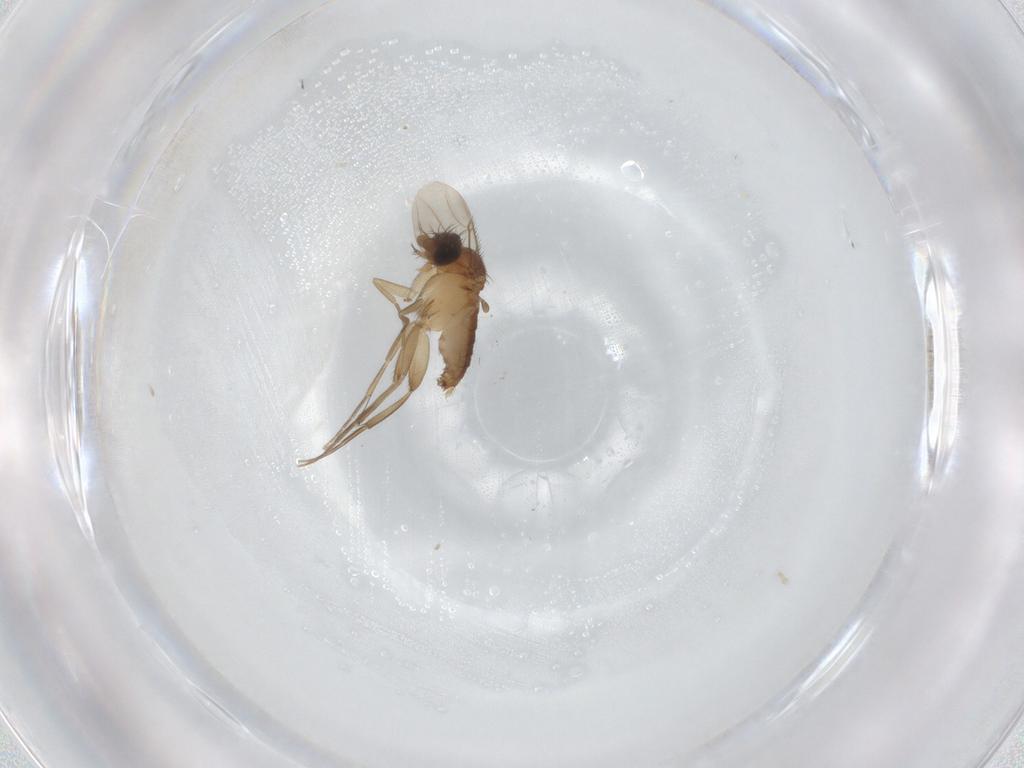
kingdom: Animalia
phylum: Arthropoda
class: Insecta
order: Diptera
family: Phoridae
